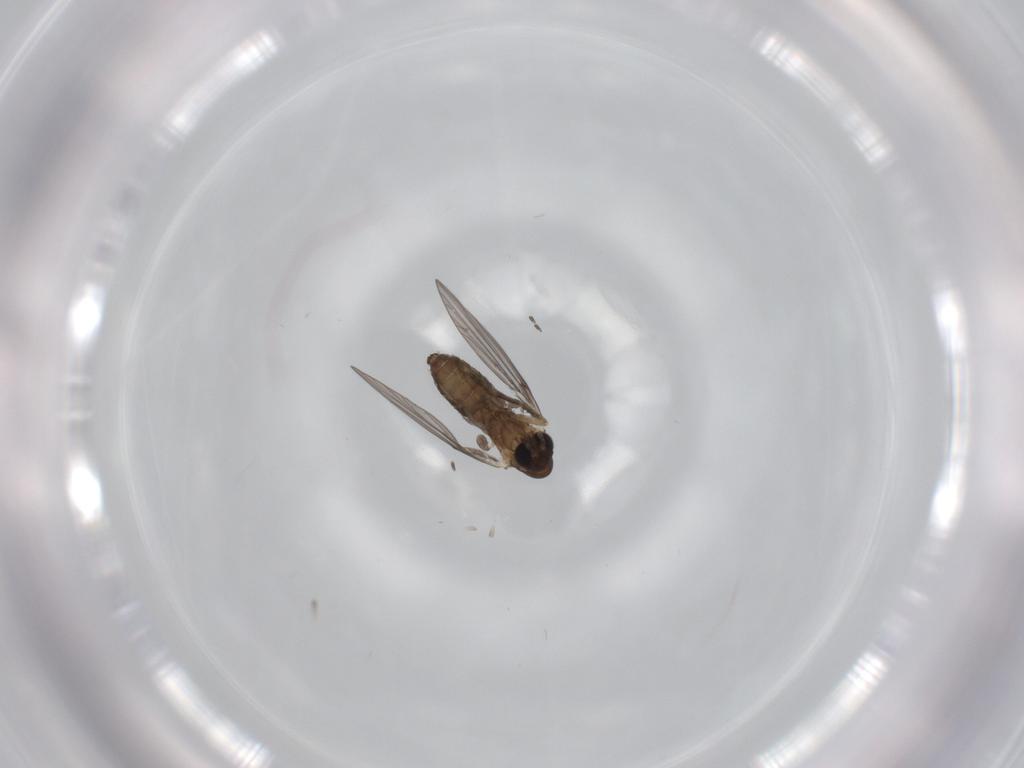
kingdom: Animalia
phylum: Arthropoda
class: Insecta
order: Diptera
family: Psychodidae
